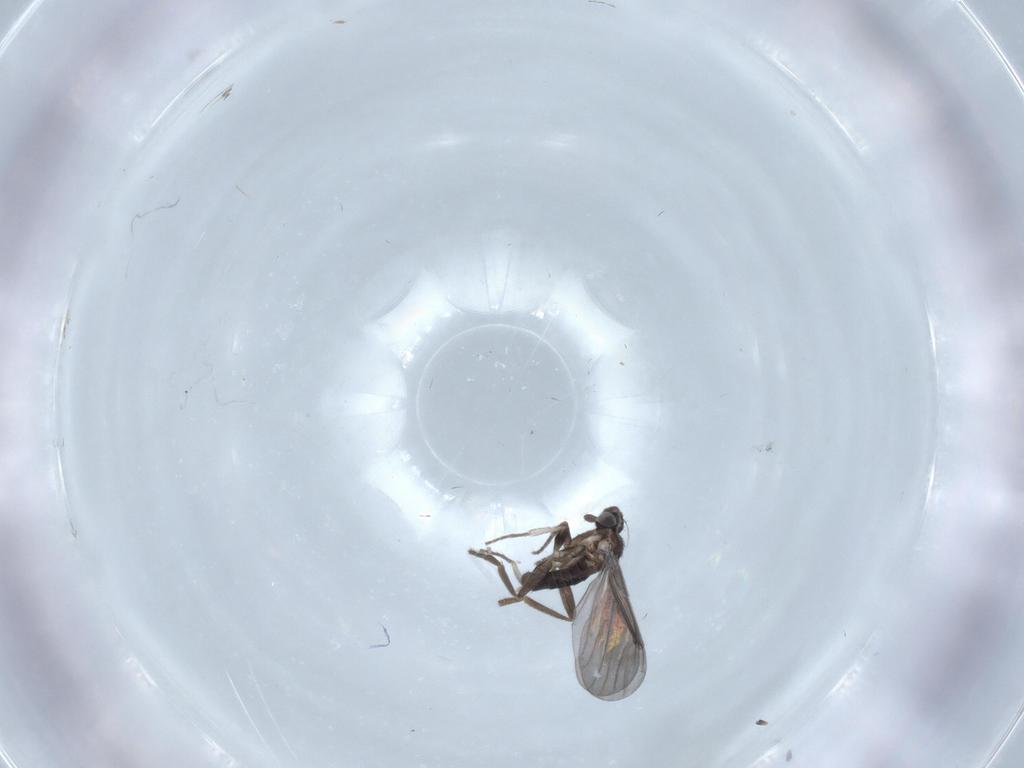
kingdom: Animalia
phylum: Arthropoda
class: Insecta
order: Diptera
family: Phoridae
